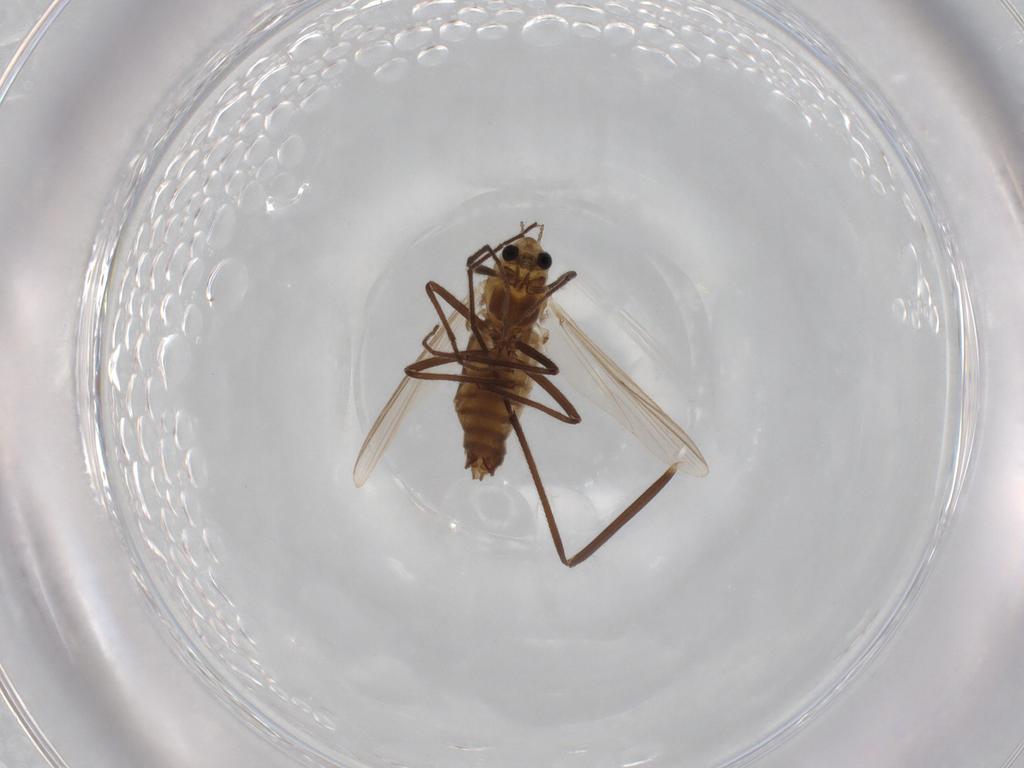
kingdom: Animalia
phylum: Arthropoda
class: Insecta
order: Diptera
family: Chironomidae
